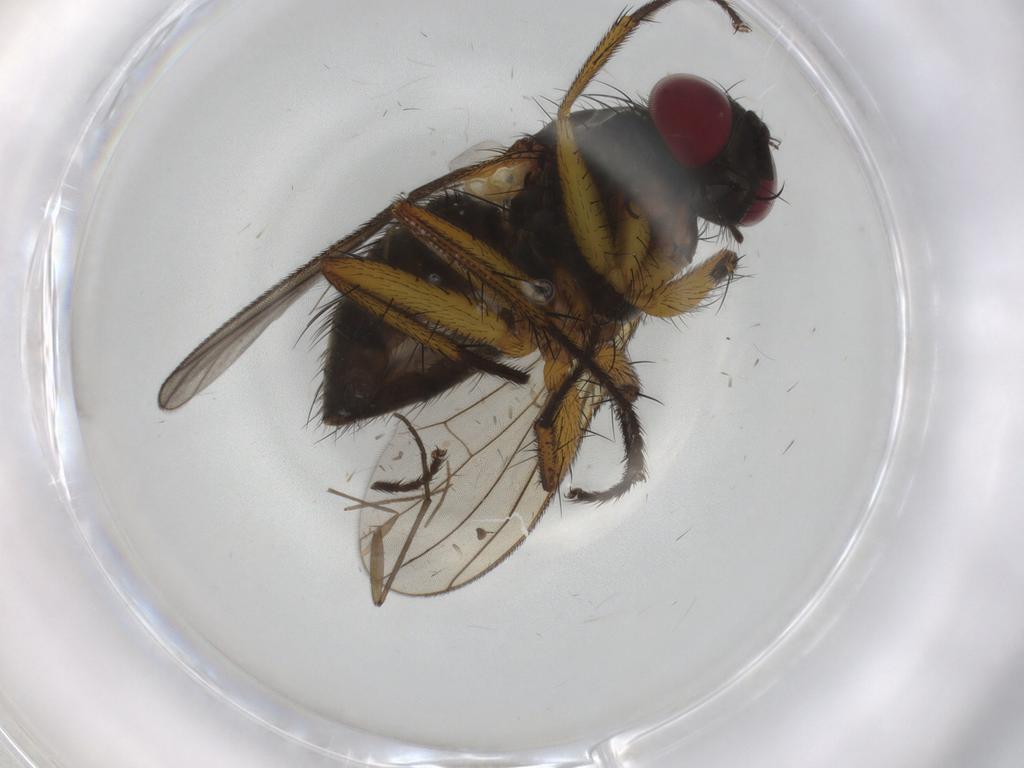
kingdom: Animalia
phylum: Arthropoda
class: Insecta
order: Diptera
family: Muscidae
